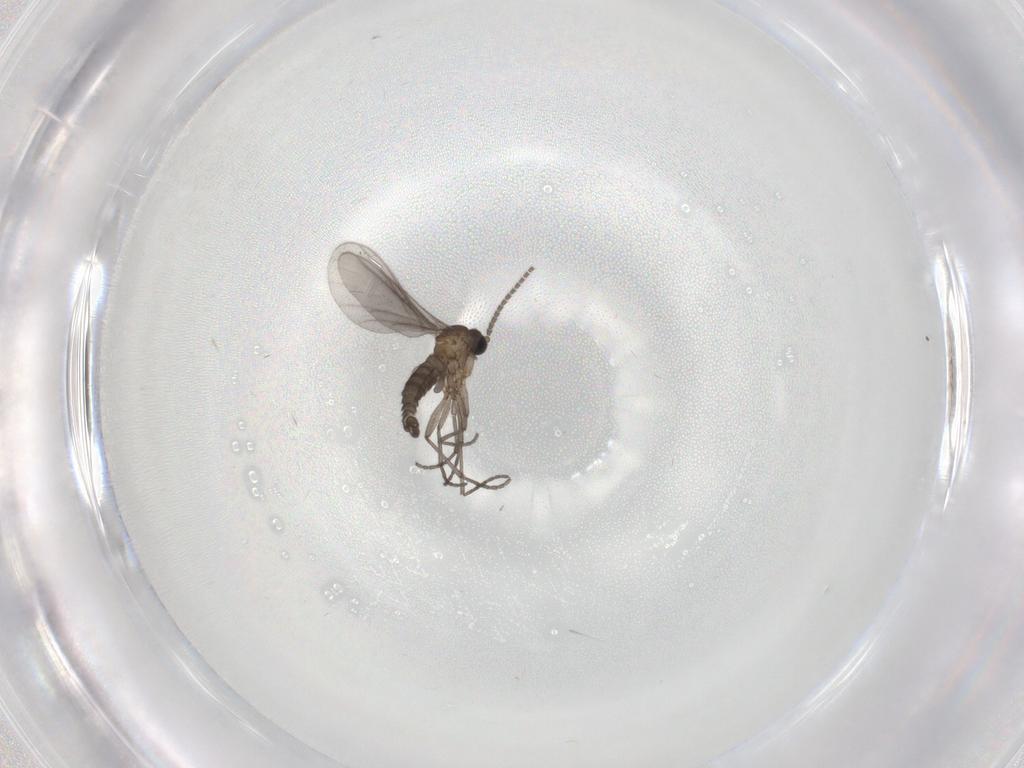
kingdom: Animalia
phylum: Arthropoda
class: Insecta
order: Diptera
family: Sciaridae
